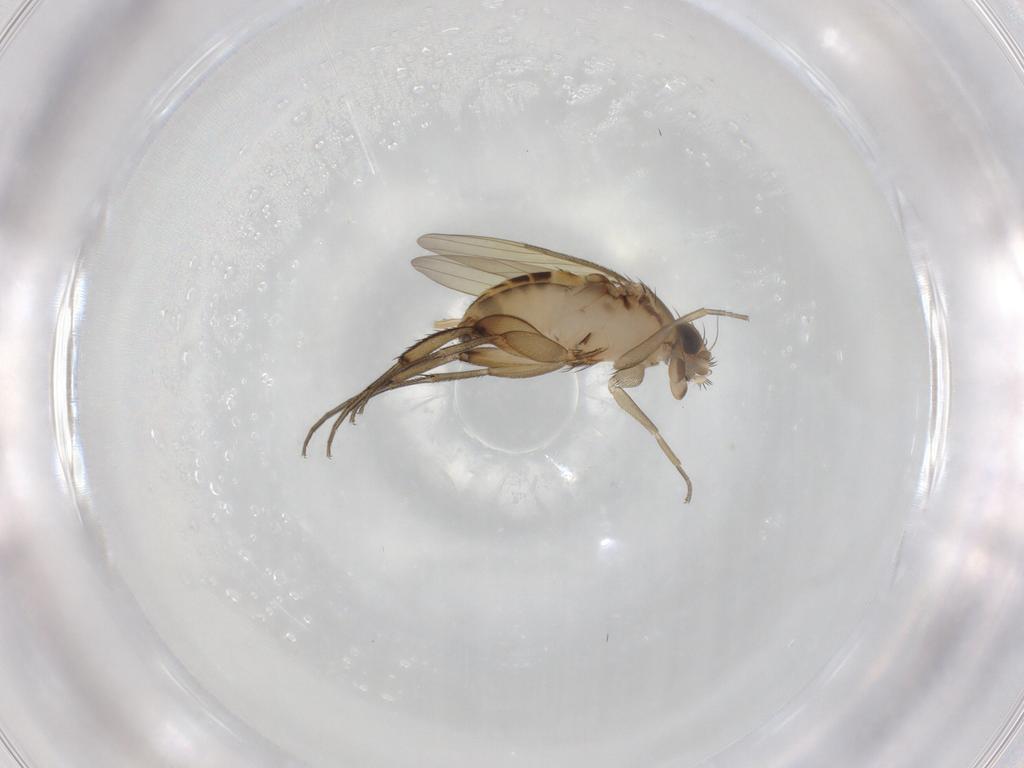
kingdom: Animalia
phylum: Arthropoda
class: Insecta
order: Diptera
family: Phoridae
